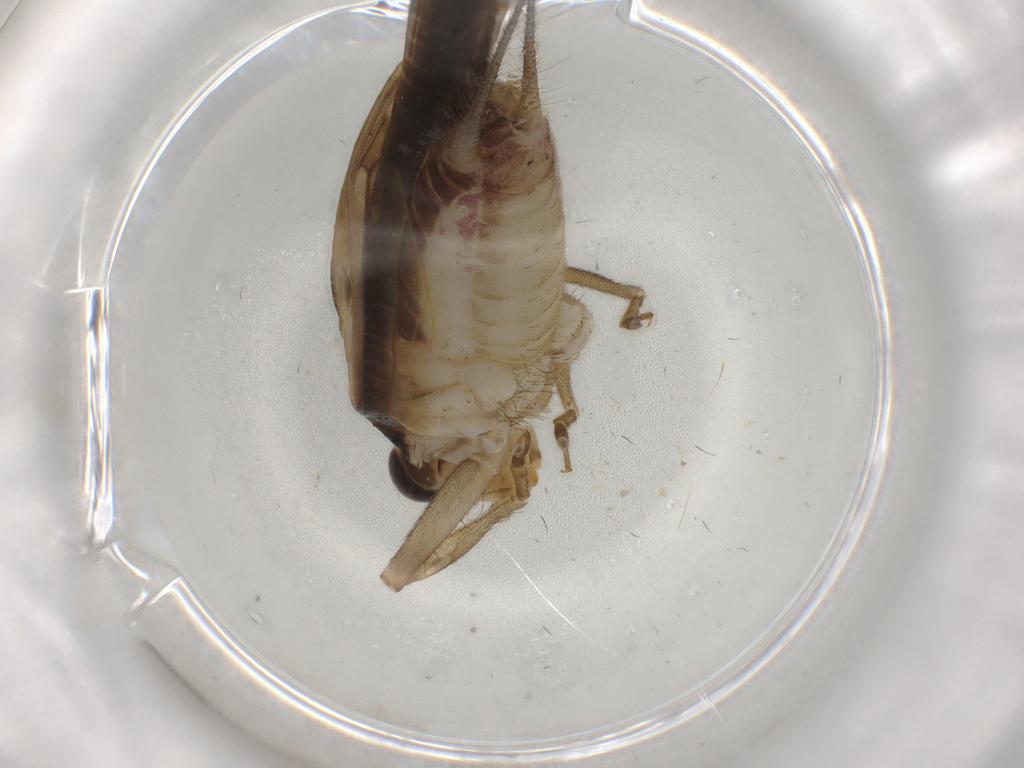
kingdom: Animalia
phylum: Arthropoda
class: Insecta
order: Orthoptera
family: Trigonidiidae
